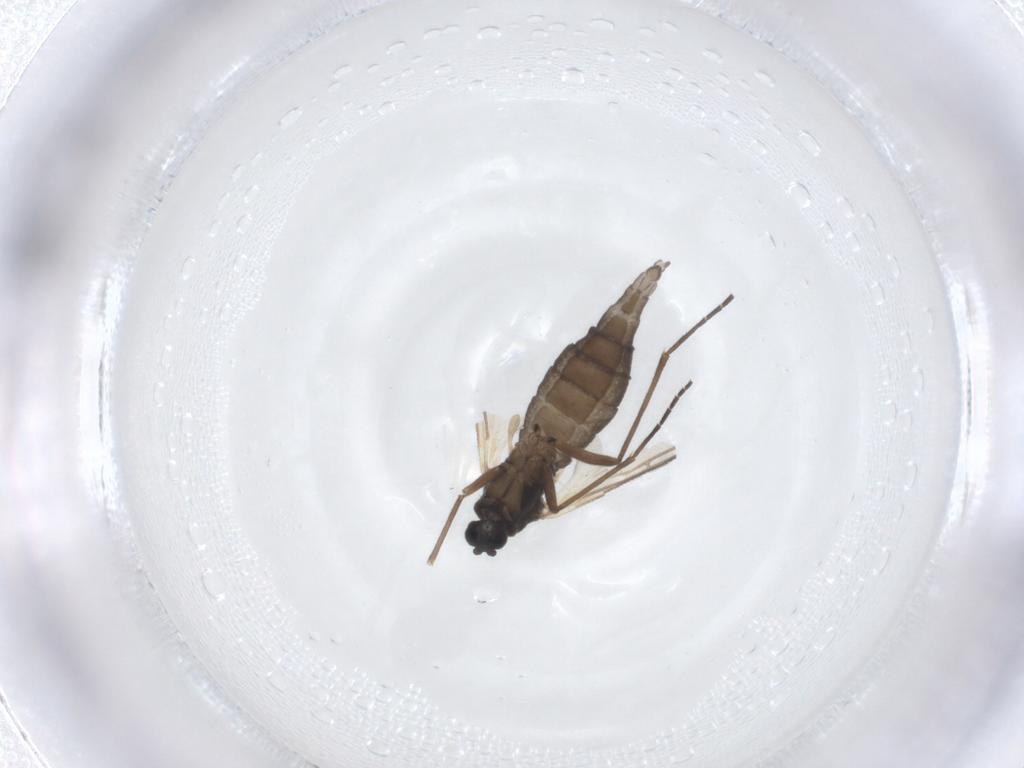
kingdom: Animalia
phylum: Arthropoda
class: Insecta
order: Diptera
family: Sciaridae
